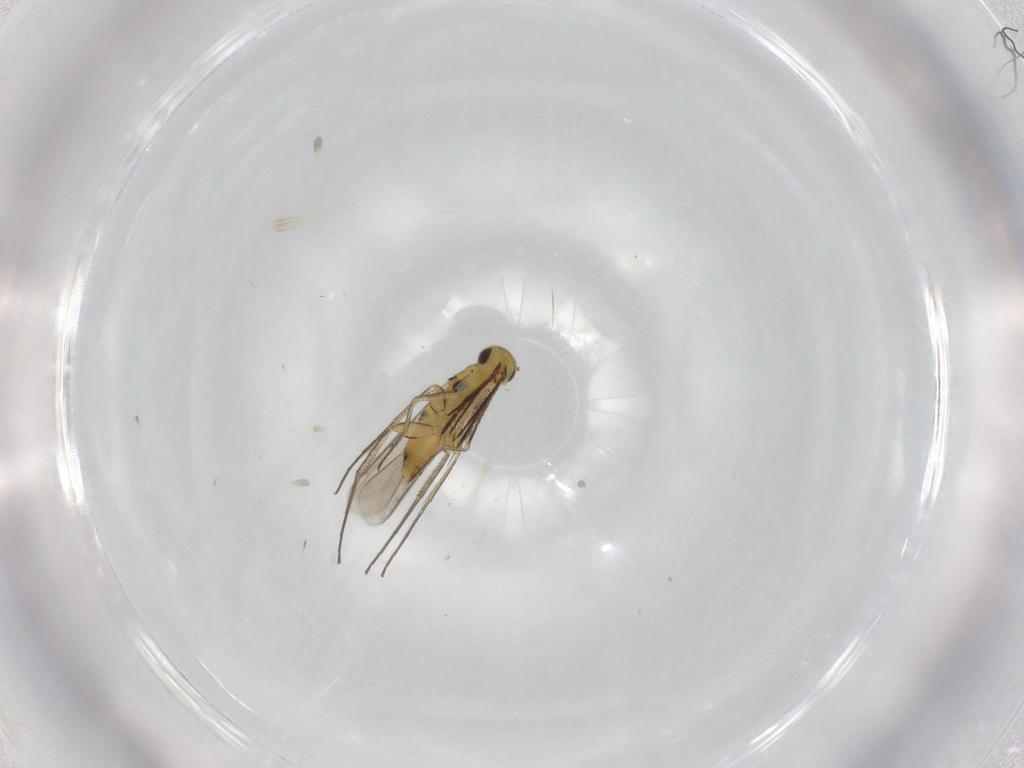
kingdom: Animalia
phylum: Arthropoda
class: Insecta
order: Hymenoptera
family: Eulophidae
